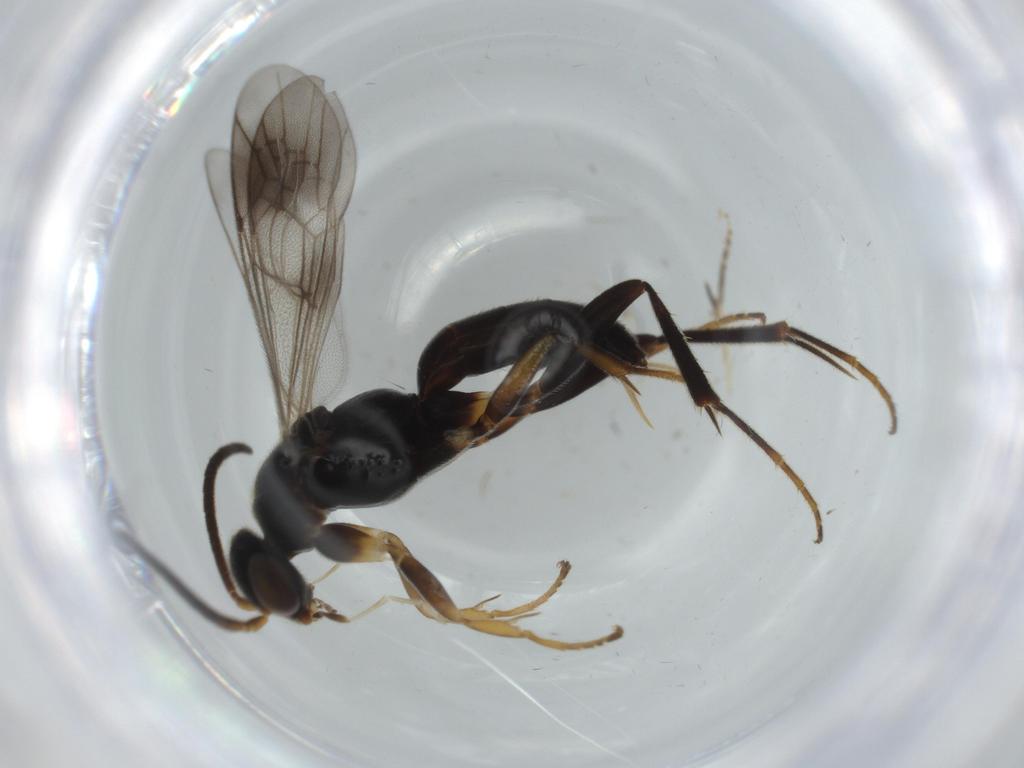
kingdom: Animalia
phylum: Arthropoda
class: Insecta
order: Hymenoptera
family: Pompilidae
